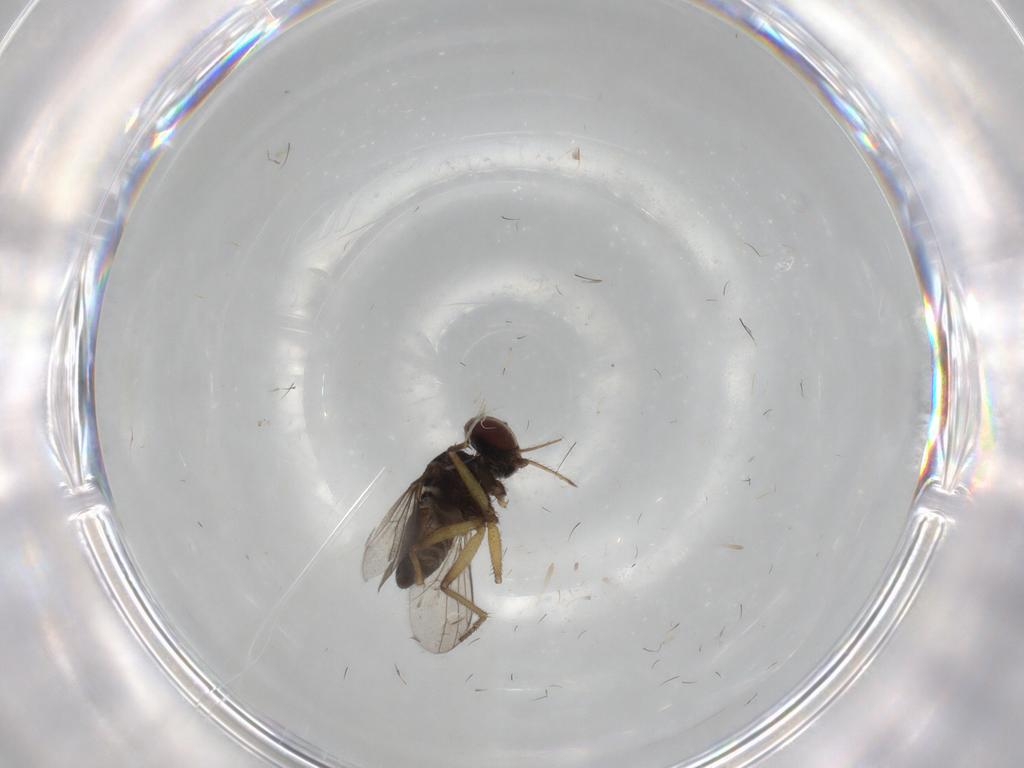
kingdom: Animalia
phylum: Arthropoda
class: Insecta
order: Diptera
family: Dolichopodidae
